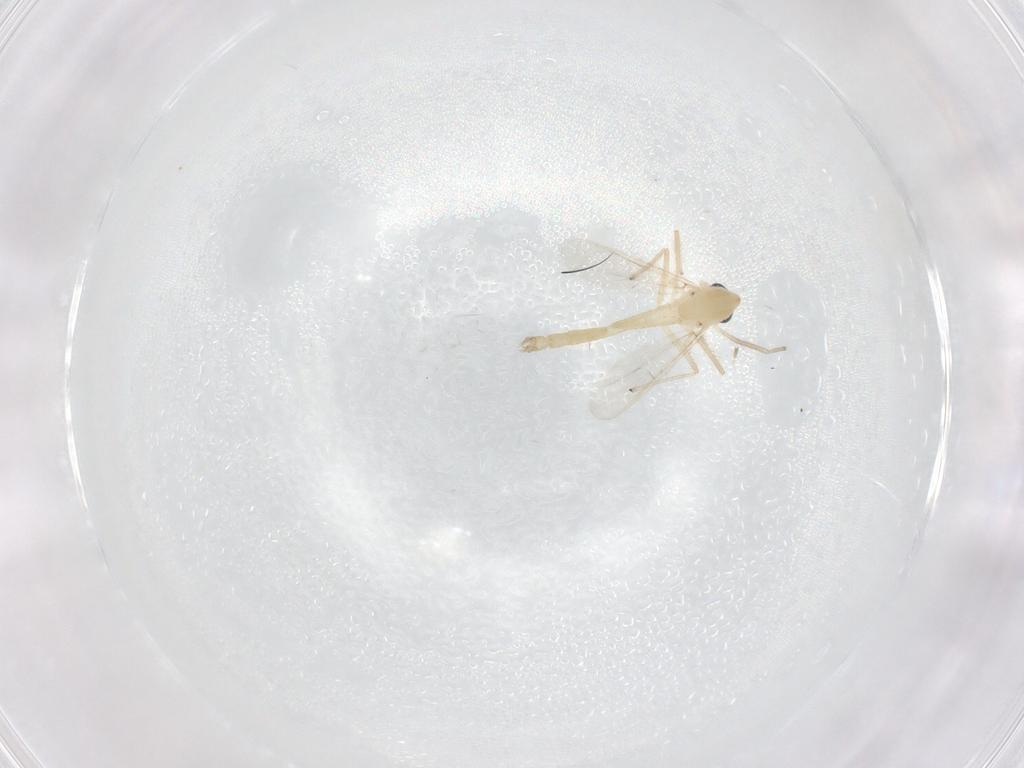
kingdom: Animalia
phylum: Arthropoda
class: Insecta
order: Diptera
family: Chironomidae
